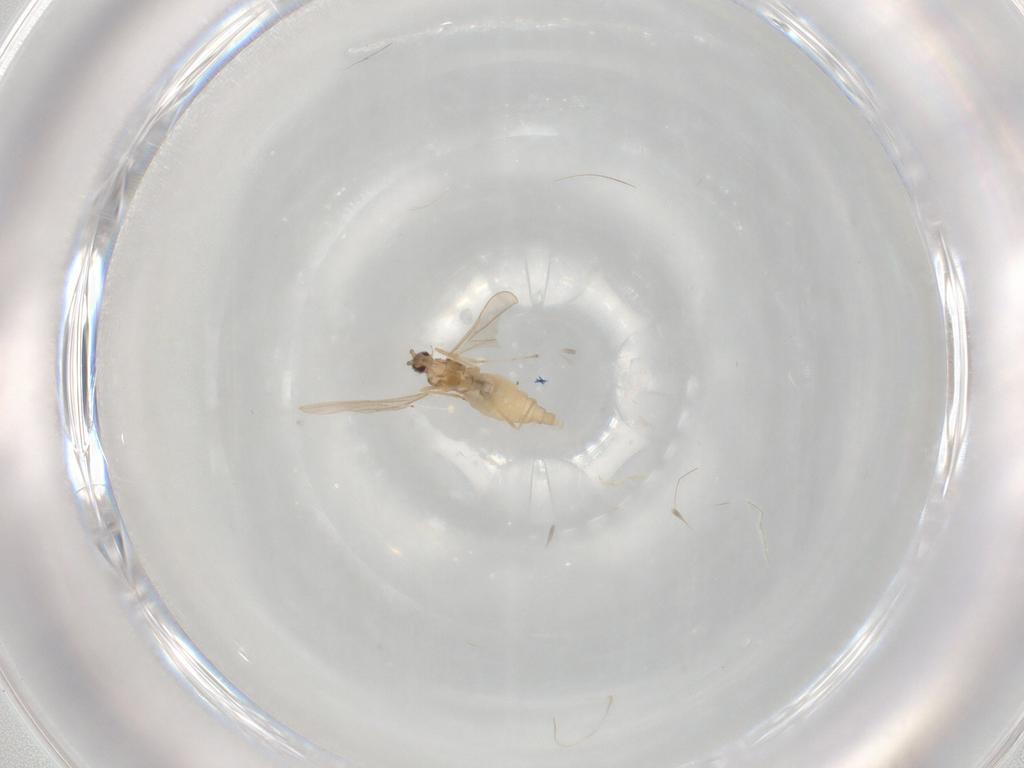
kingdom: Animalia
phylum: Arthropoda
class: Insecta
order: Diptera
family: Cecidomyiidae
